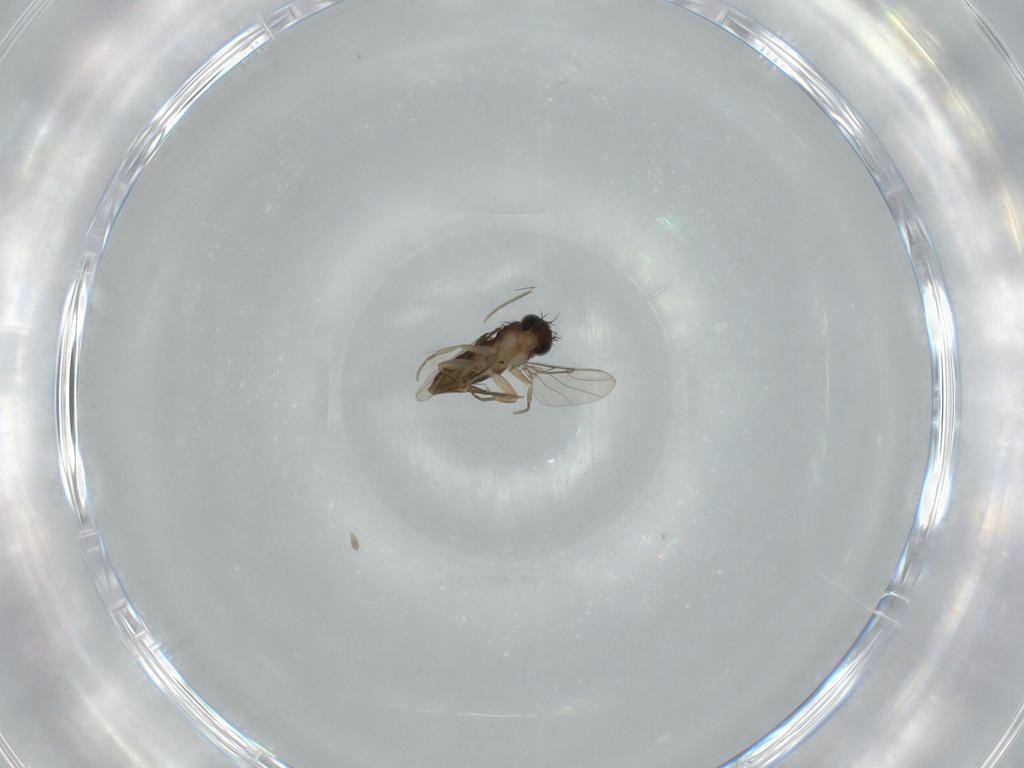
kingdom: Animalia
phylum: Arthropoda
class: Insecta
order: Diptera
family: Phoridae
